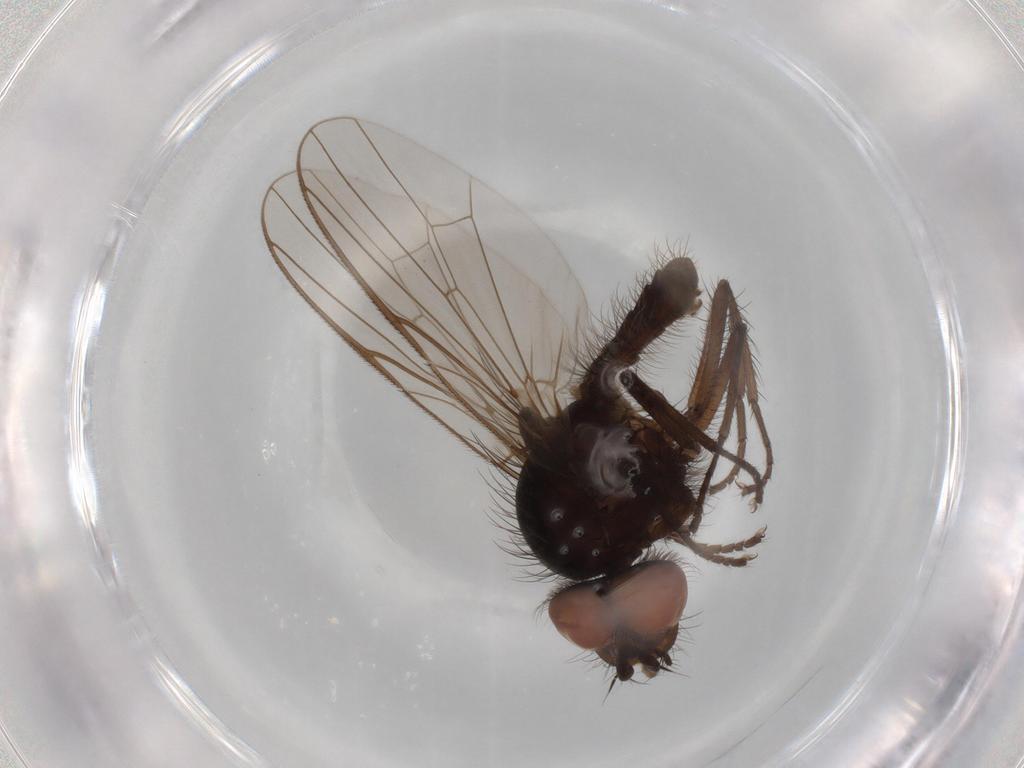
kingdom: Animalia
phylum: Arthropoda
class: Insecta
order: Diptera
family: Anthomyiidae
